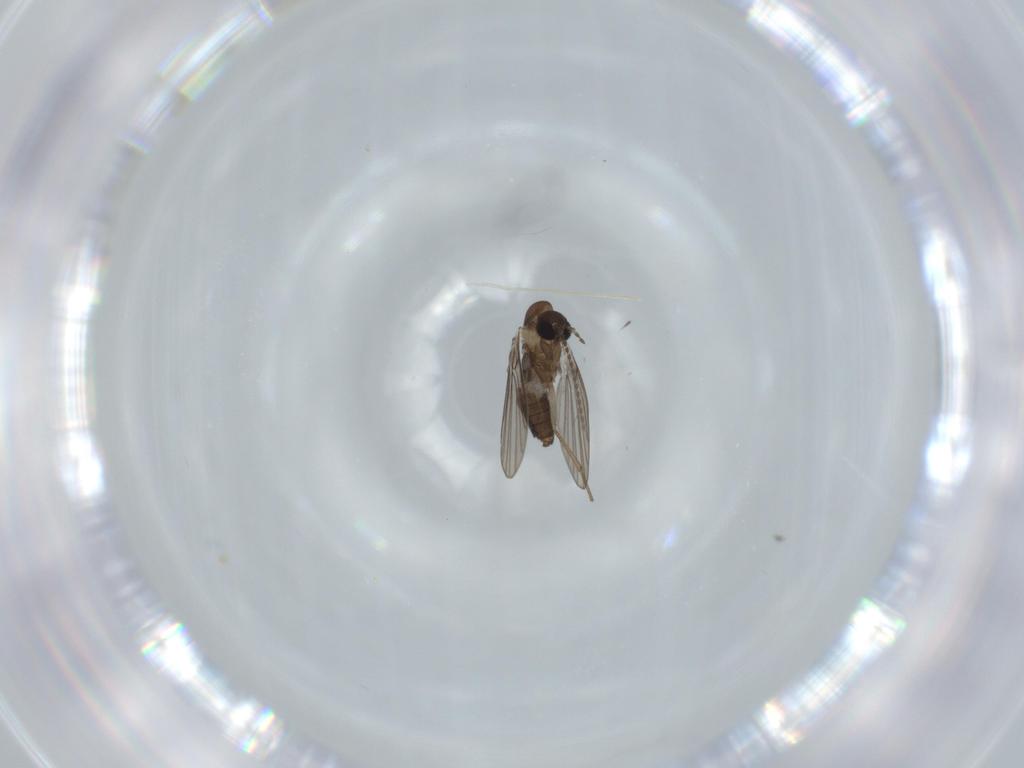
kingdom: Animalia
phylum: Arthropoda
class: Insecta
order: Diptera
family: Psychodidae
